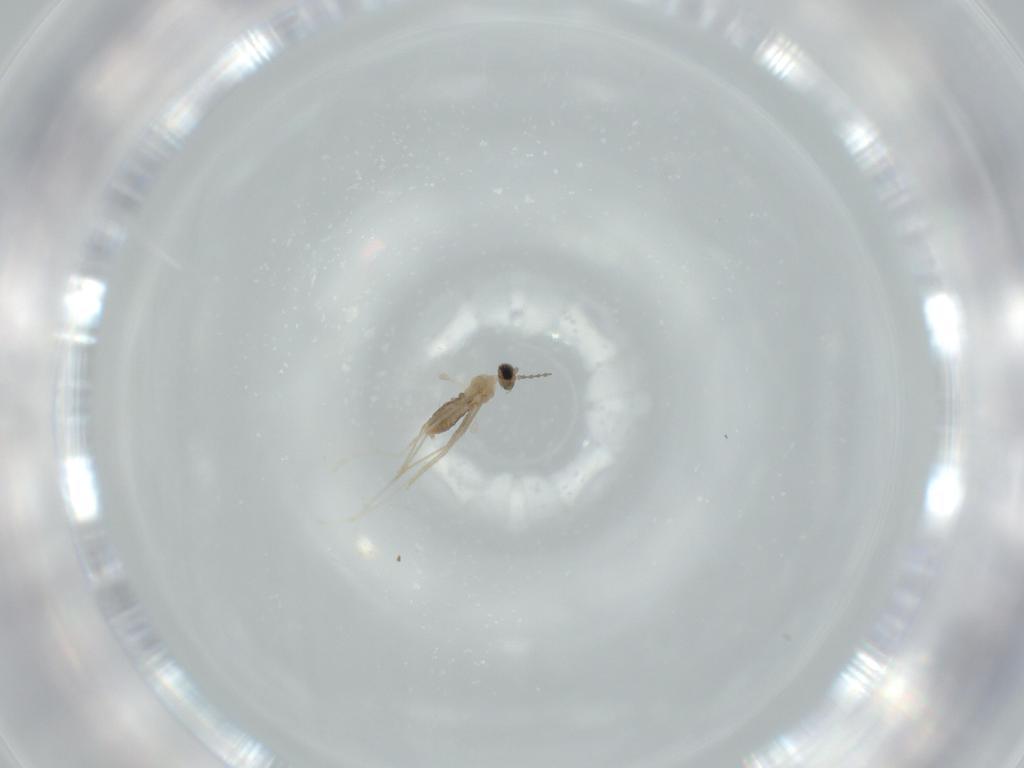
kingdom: Animalia
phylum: Arthropoda
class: Insecta
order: Diptera
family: Cecidomyiidae
